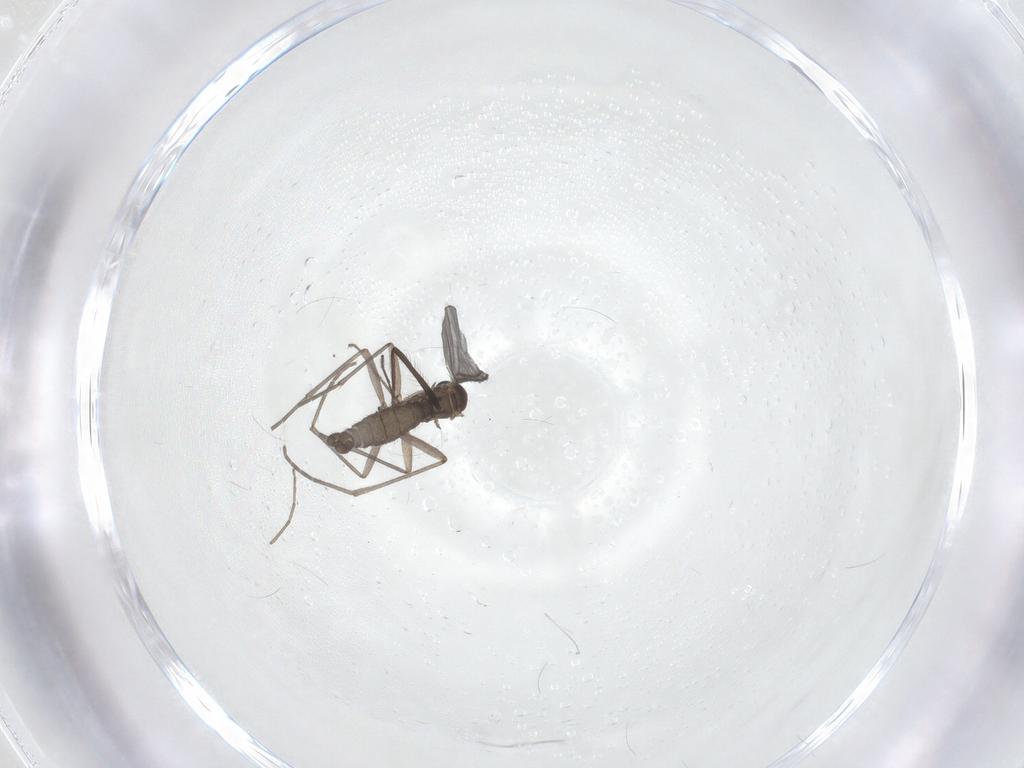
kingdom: Animalia
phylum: Arthropoda
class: Insecta
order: Diptera
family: Sciaridae
